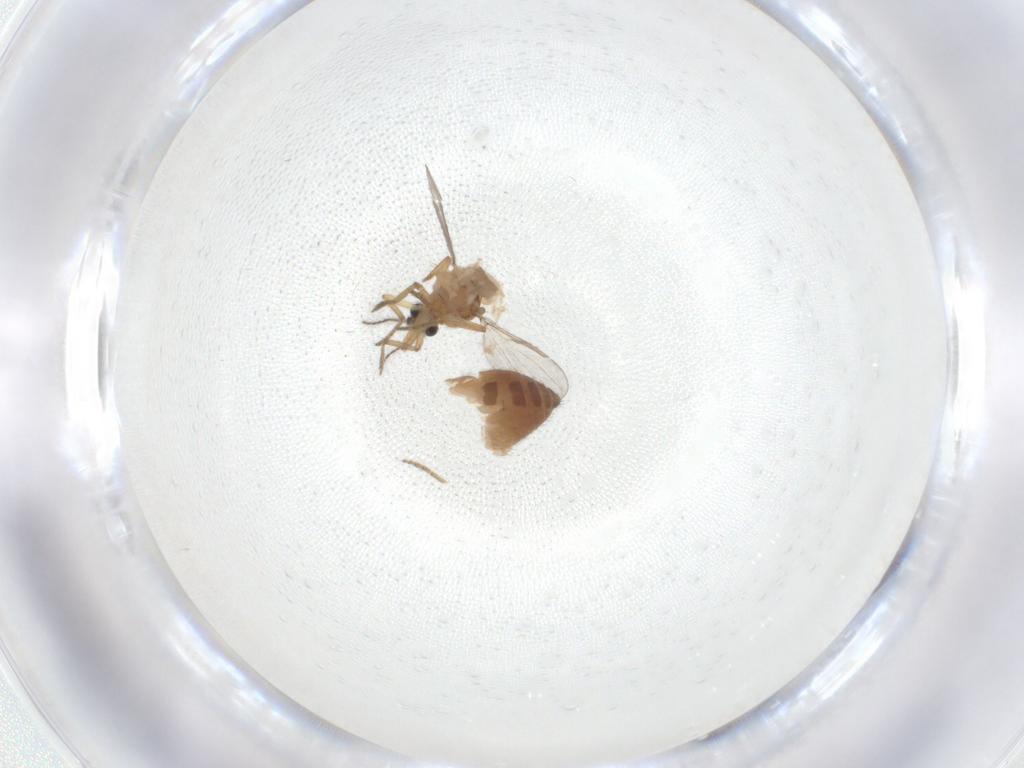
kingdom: Animalia
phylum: Arthropoda
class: Insecta
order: Diptera
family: Ceratopogonidae
